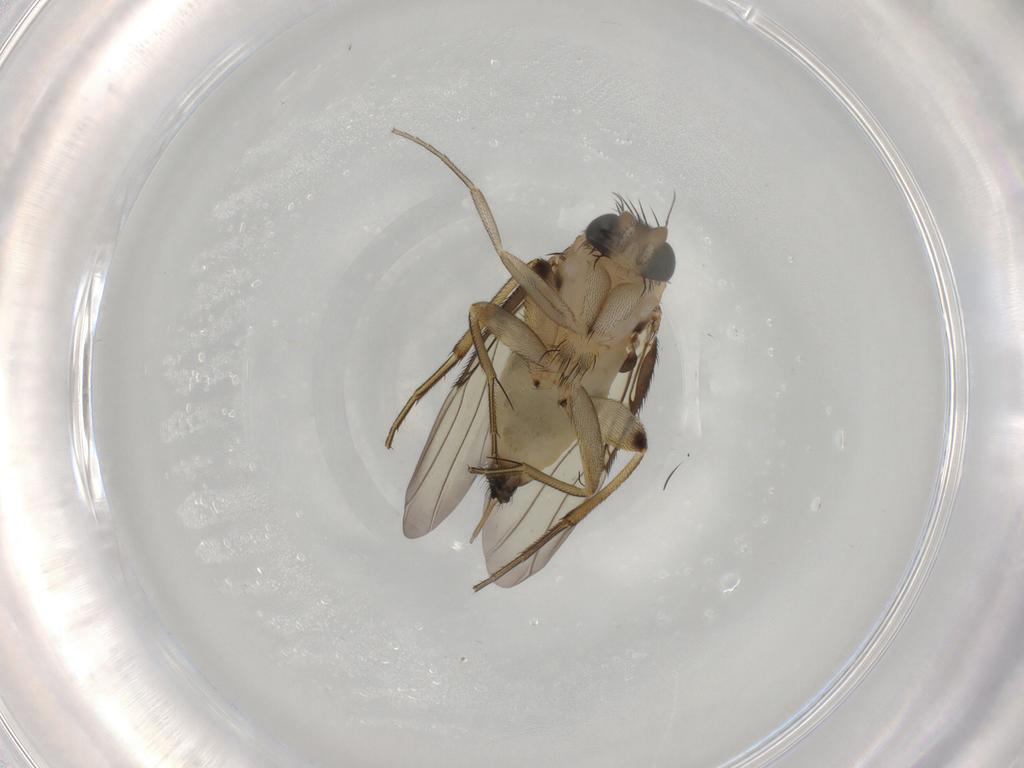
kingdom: Animalia
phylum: Arthropoda
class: Insecta
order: Diptera
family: Phoridae
